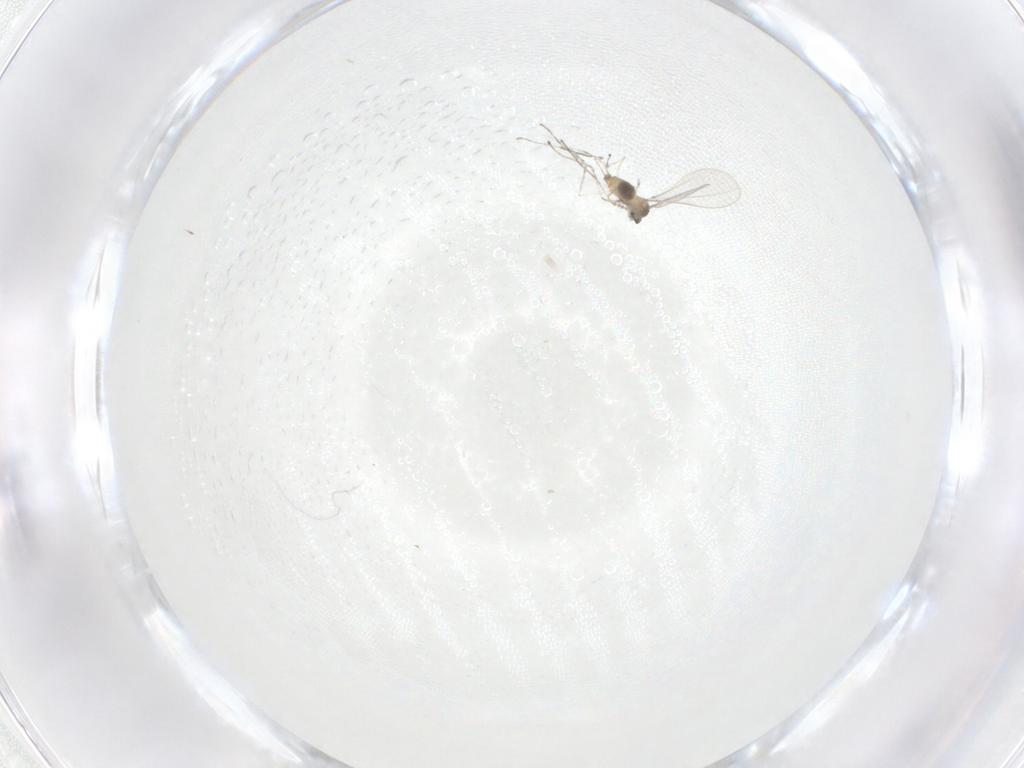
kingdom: Animalia
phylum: Arthropoda
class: Insecta
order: Diptera
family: Cecidomyiidae
